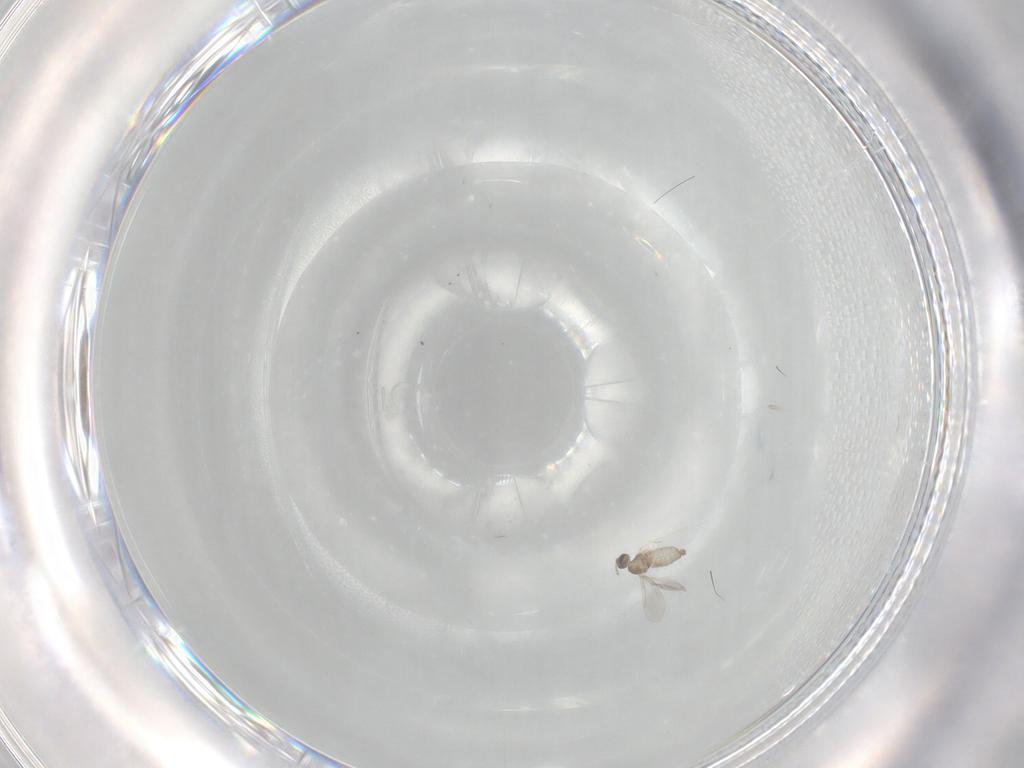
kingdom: Animalia
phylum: Arthropoda
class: Insecta
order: Diptera
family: Cecidomyiidae
